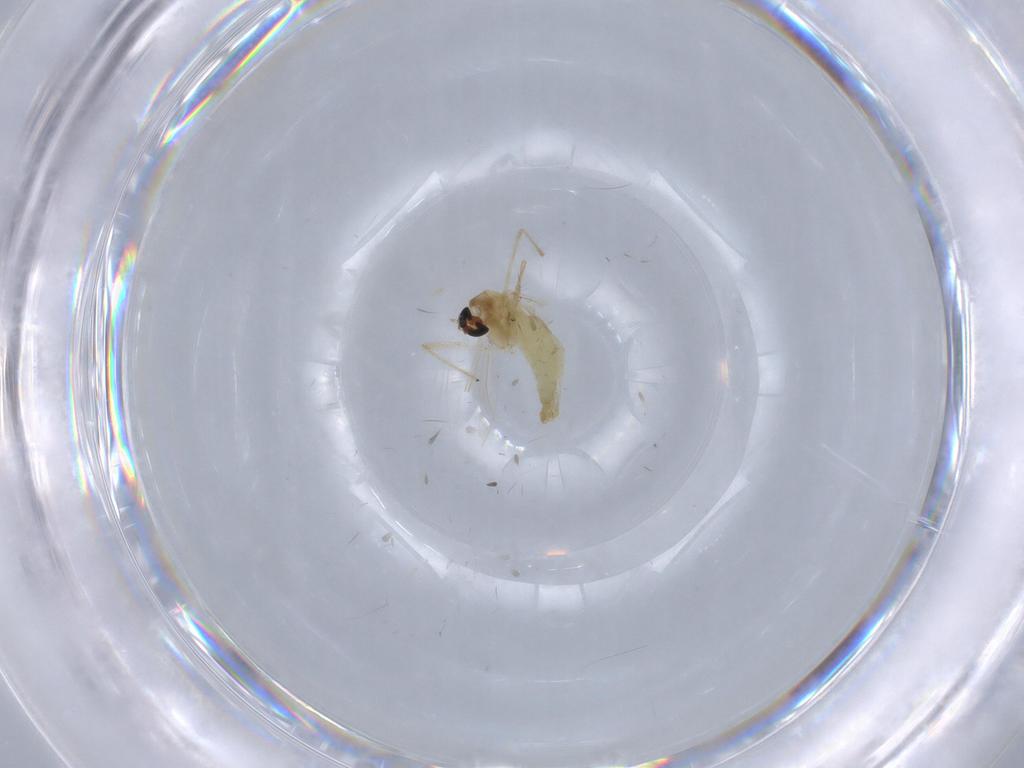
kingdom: Animalia
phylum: Arthropoda
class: Insecta
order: Diptera
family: Chironomidae
